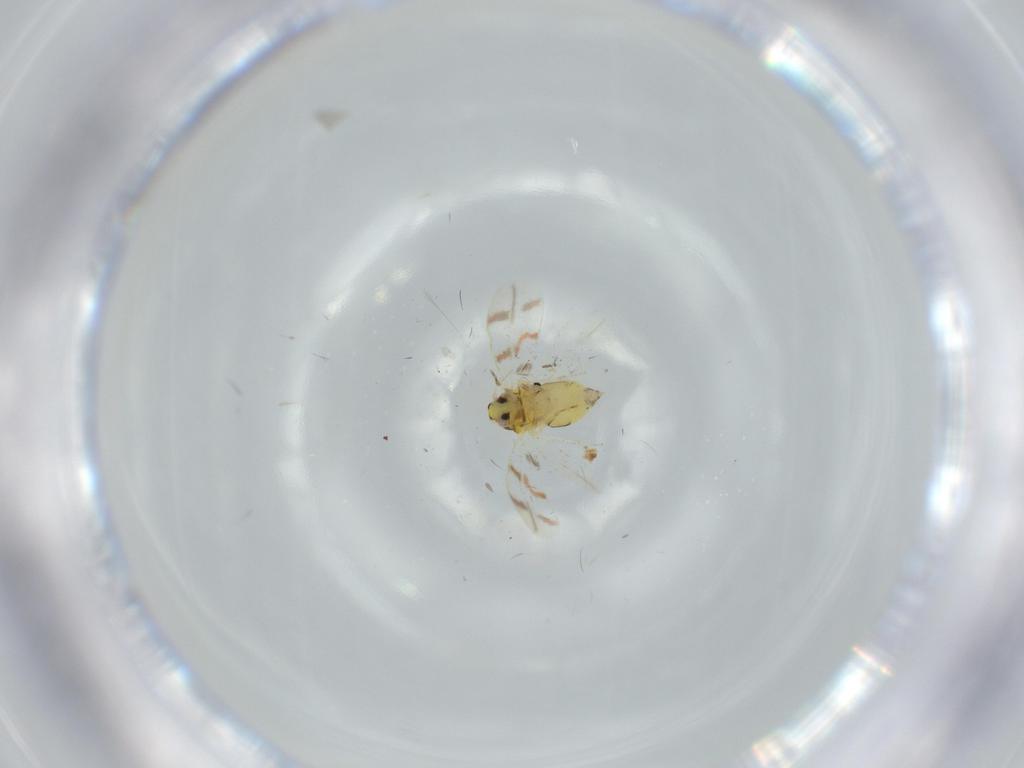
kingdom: Animalia
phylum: Arthropoda
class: Insecta
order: Hemiptera
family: Aleyrodidae
